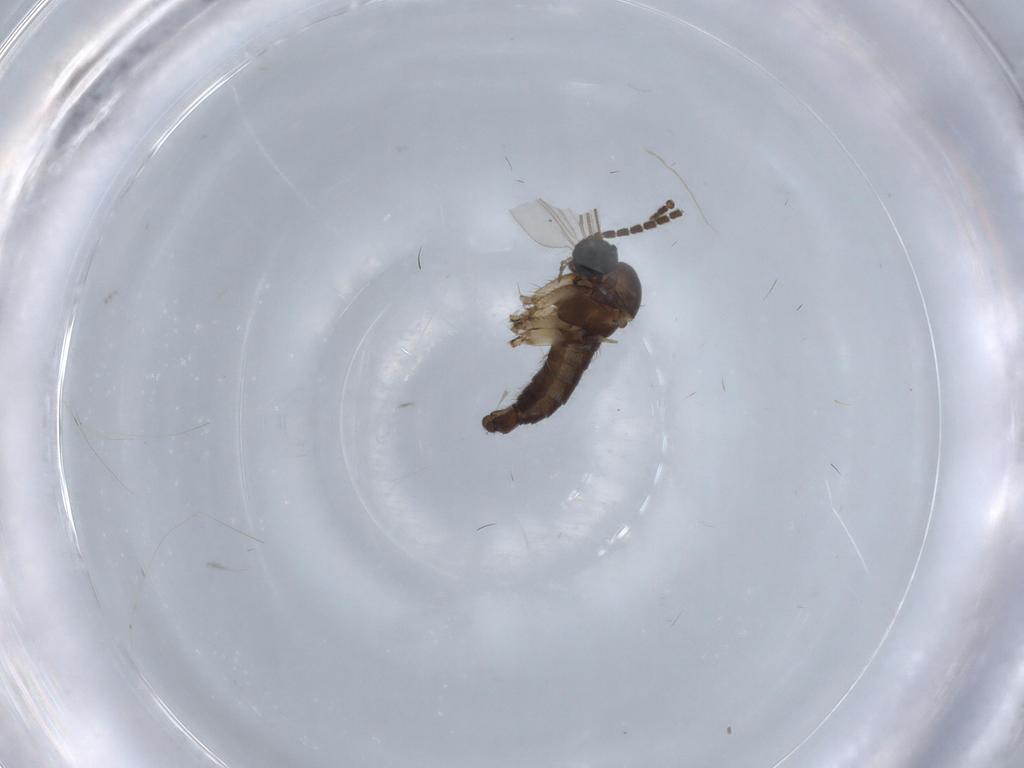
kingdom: Animalia
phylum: Arthropoda
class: Insecta
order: Diptera
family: Cecidomyiidae
